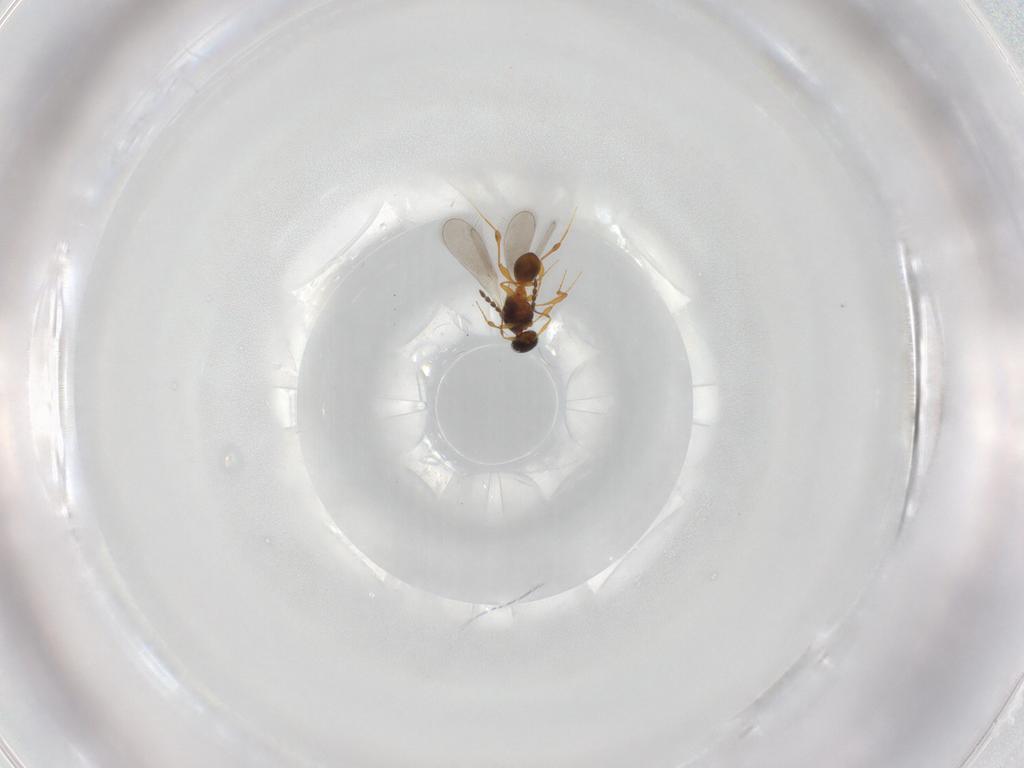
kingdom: Animalia
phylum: Arthropoda
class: Insecta
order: Hymenoptera
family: Platygastridae
